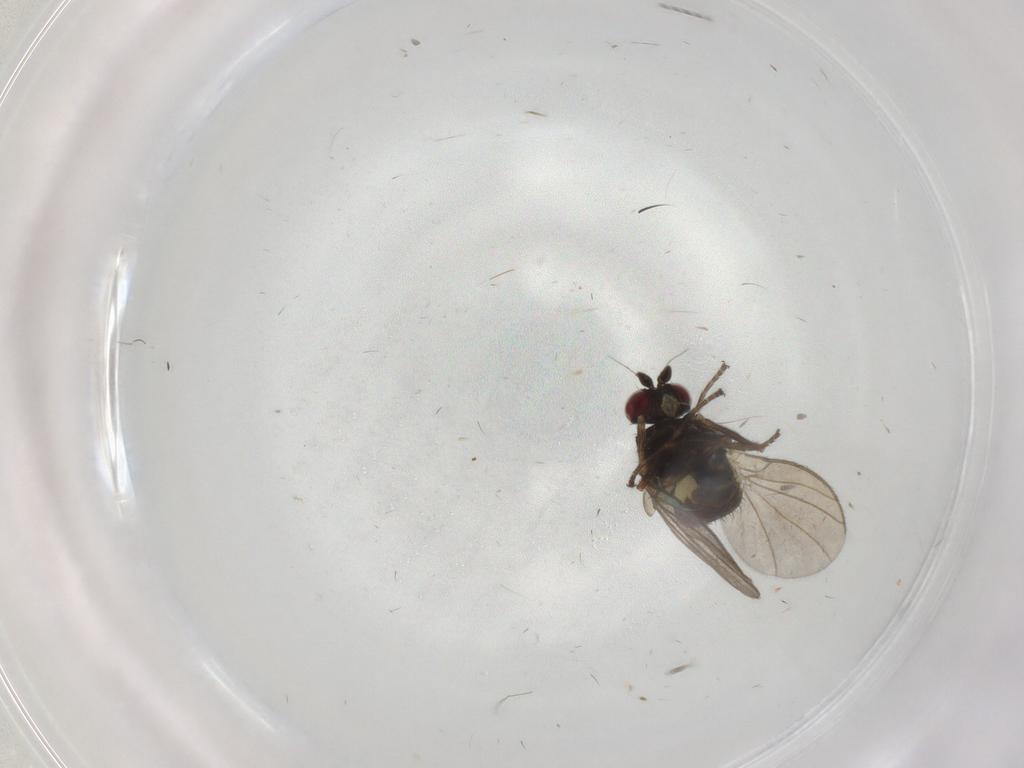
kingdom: Animalia
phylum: Arthropoda
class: Insecta
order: Diptera
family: Agromyzidae
